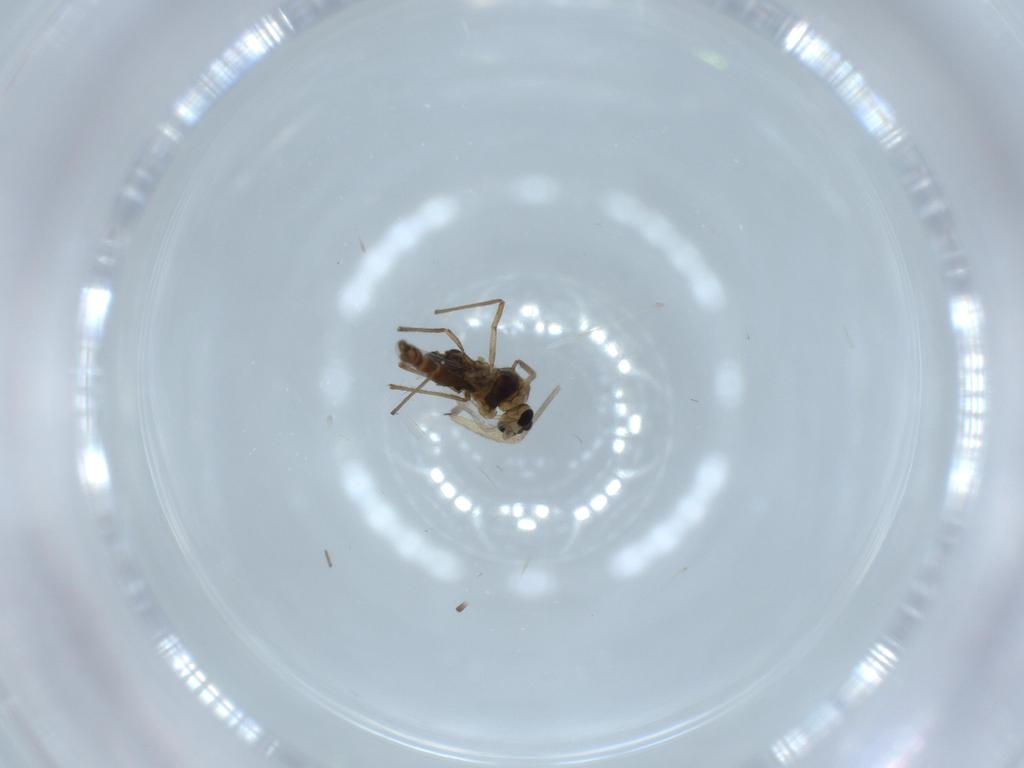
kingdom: Animalia
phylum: Arthropoda
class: Insecta
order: Diptera
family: Chironomidae
